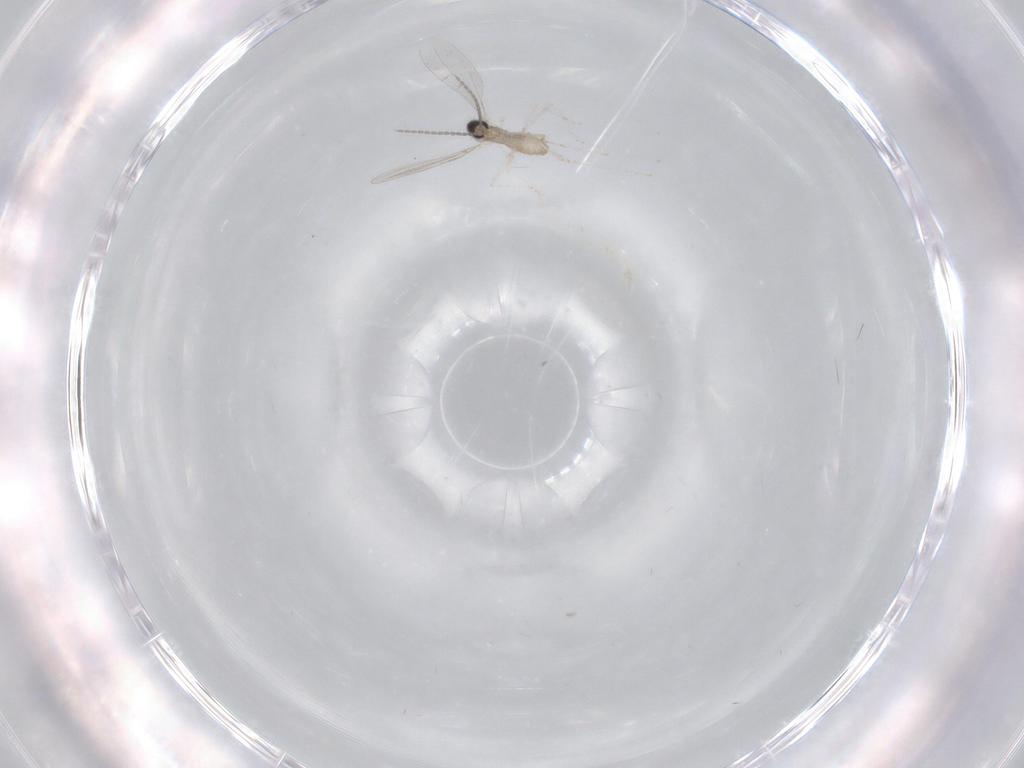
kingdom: Animalia
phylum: Arthropoda
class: Insecta
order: Diptera
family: Cecidomyiidae
